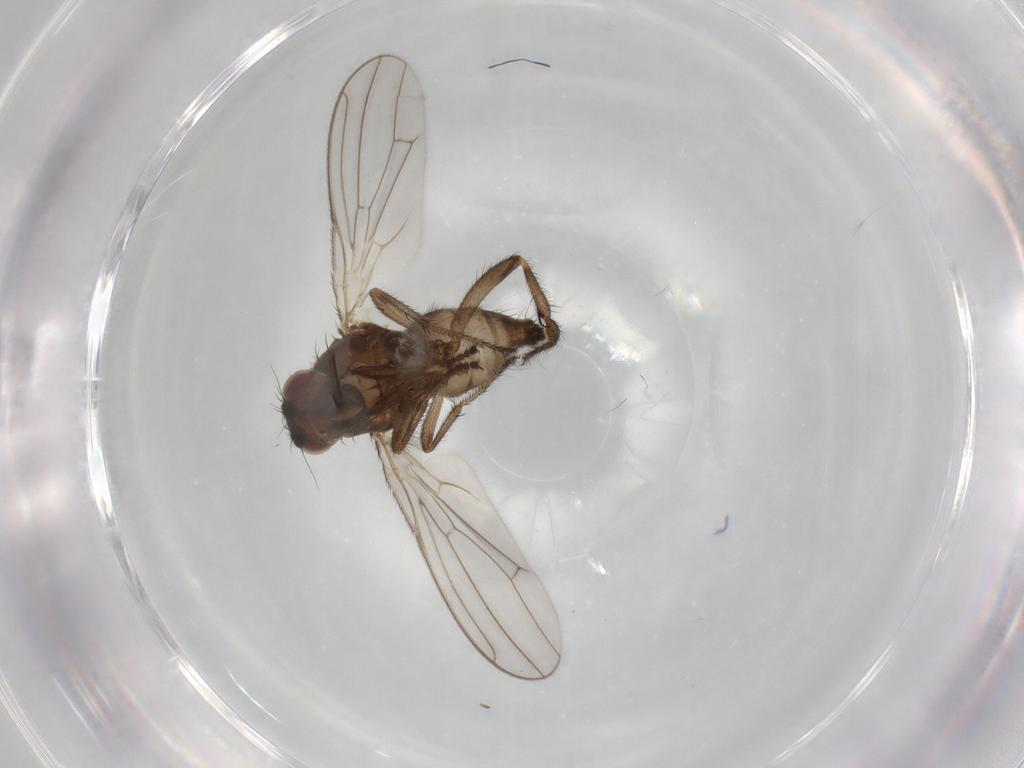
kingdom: Animalia
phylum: Arthropoda
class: Insecta
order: Diptera
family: Sphaeroceridae
